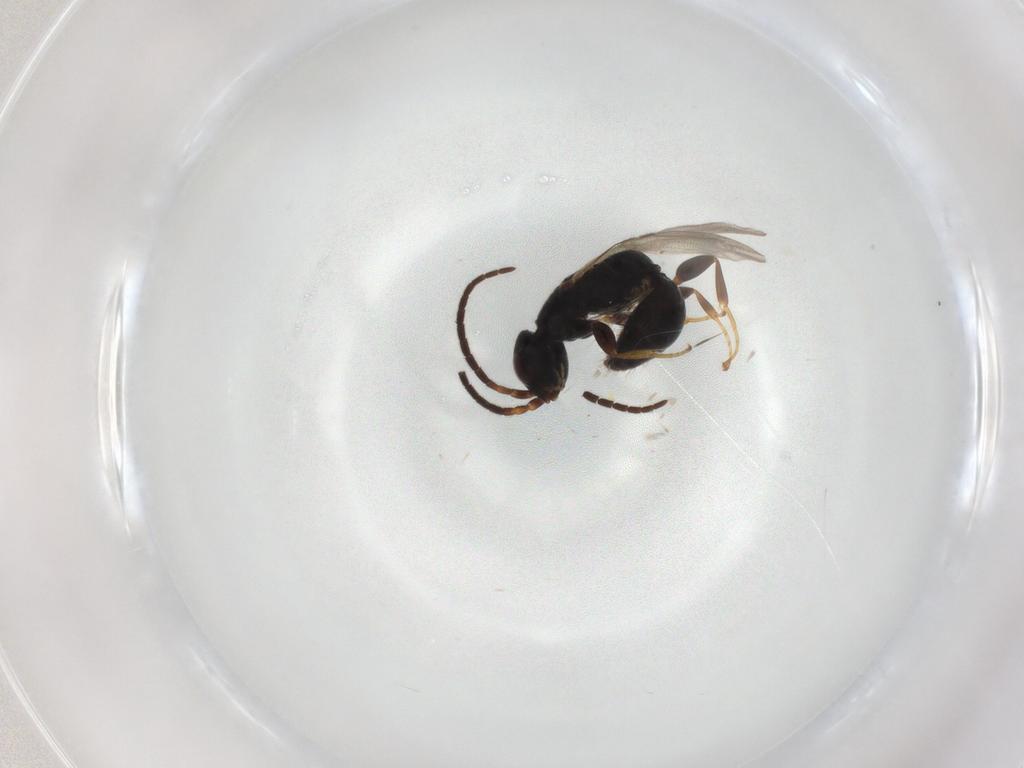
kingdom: Animalia
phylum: Arthropoda
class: Insecta
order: Hymenoptera
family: Bethylidae
